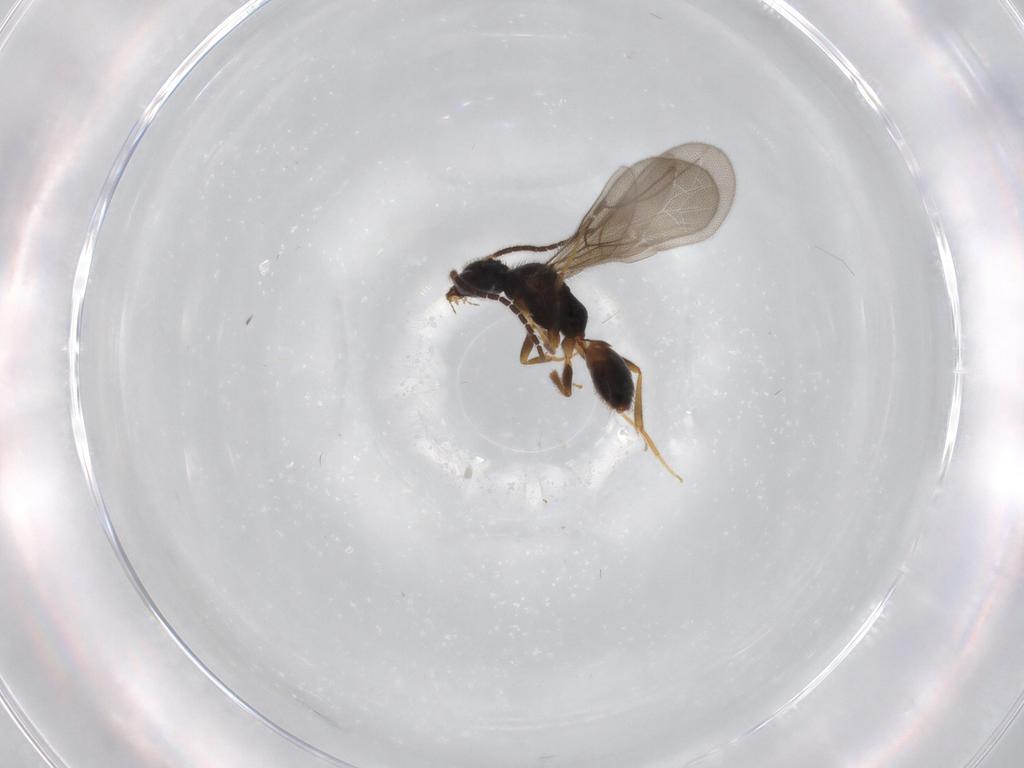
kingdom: Animalia
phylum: Arthropoda
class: Insecta
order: Hymenoptera
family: Bethylidae
